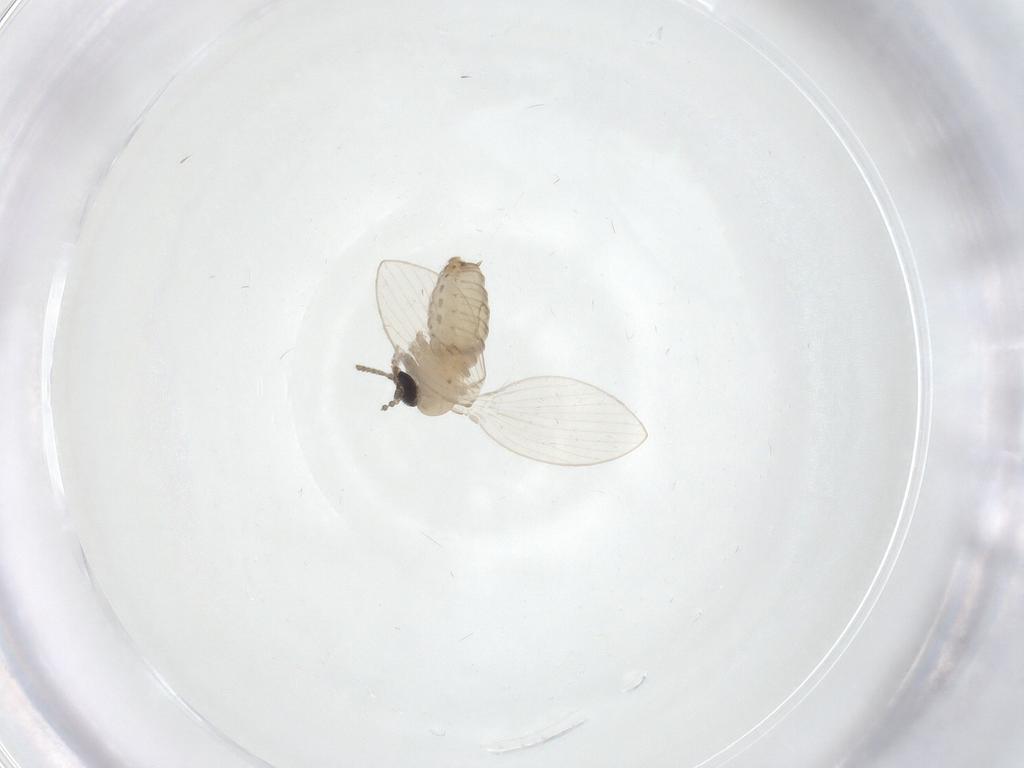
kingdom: Animalia
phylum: Arthropoda
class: Insecta
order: Diptera
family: Psychodidae
